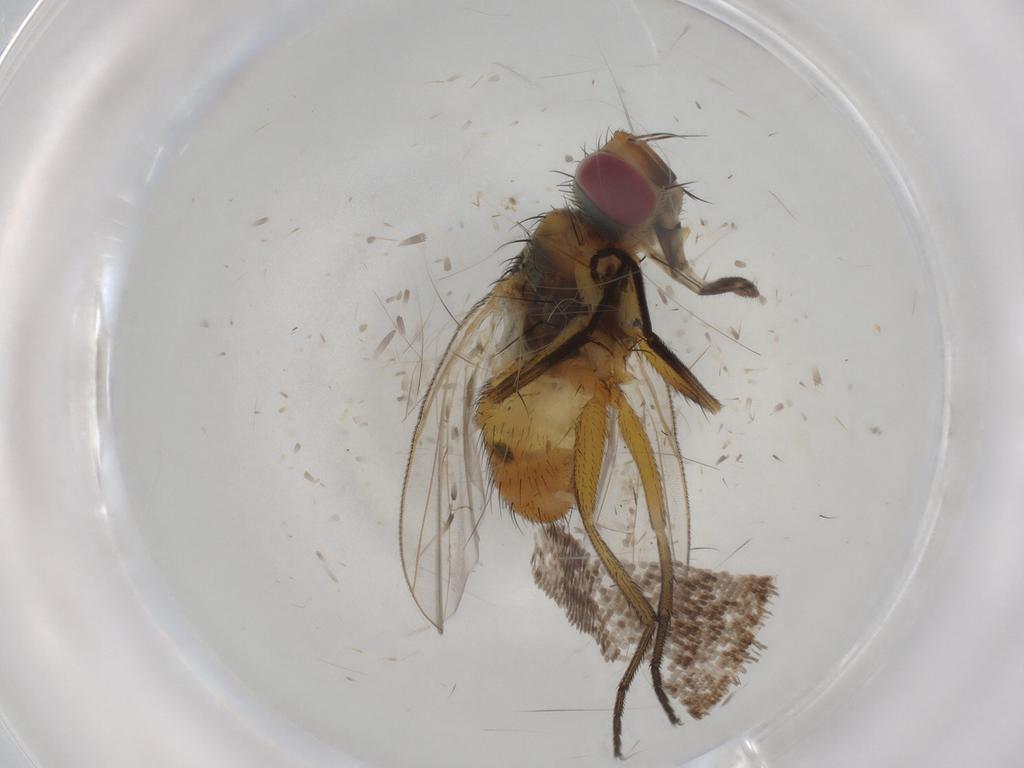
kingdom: Animalia
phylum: Arthropoda
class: Insecta
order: Diptera
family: Muscidae
